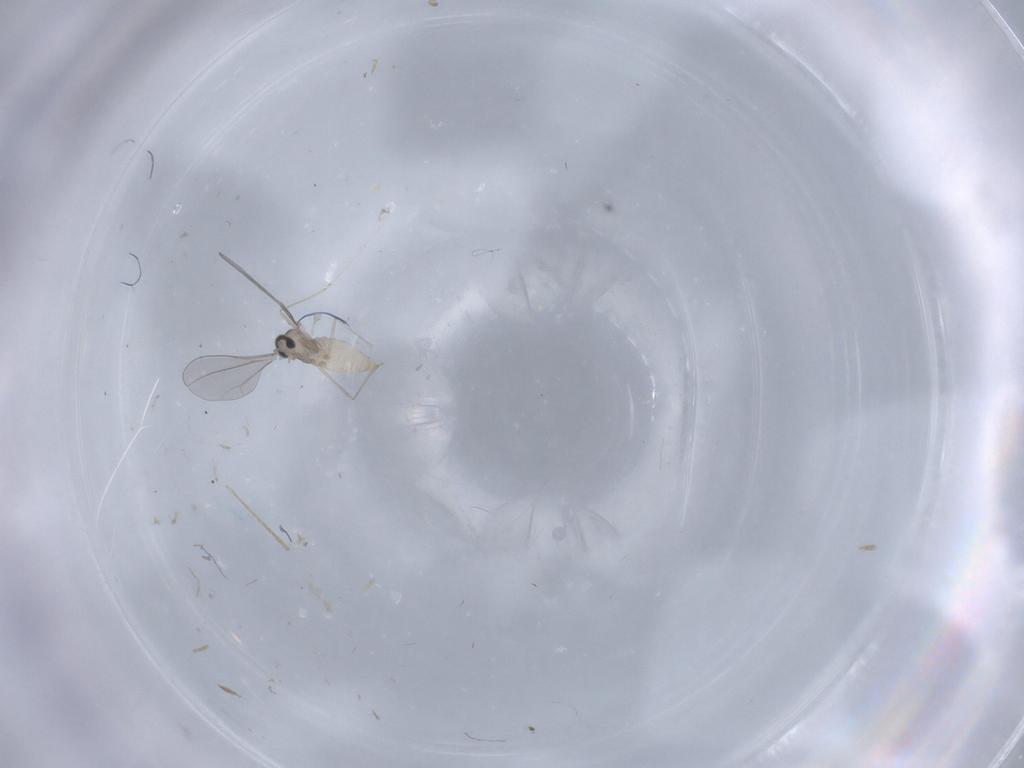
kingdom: Animalia
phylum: Arthropoda
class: Insecta
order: Diptera
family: Cecidomyiidae
